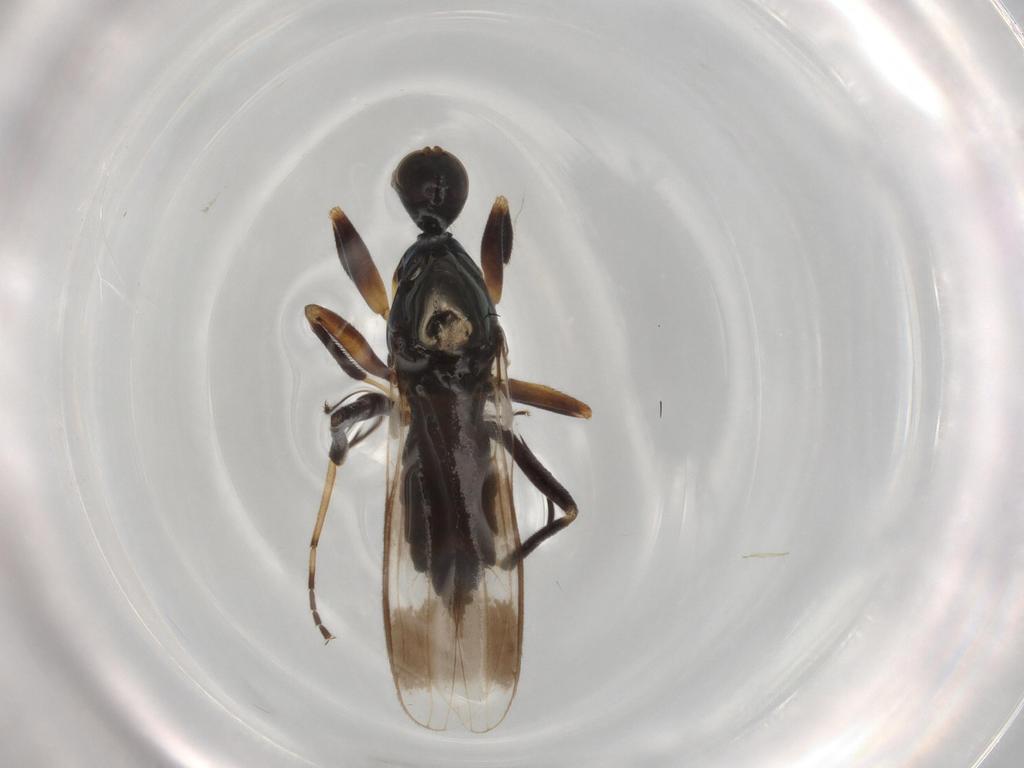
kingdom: Animalia
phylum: Arthropoda
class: Insecta
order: Diptera
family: Hybotidae
